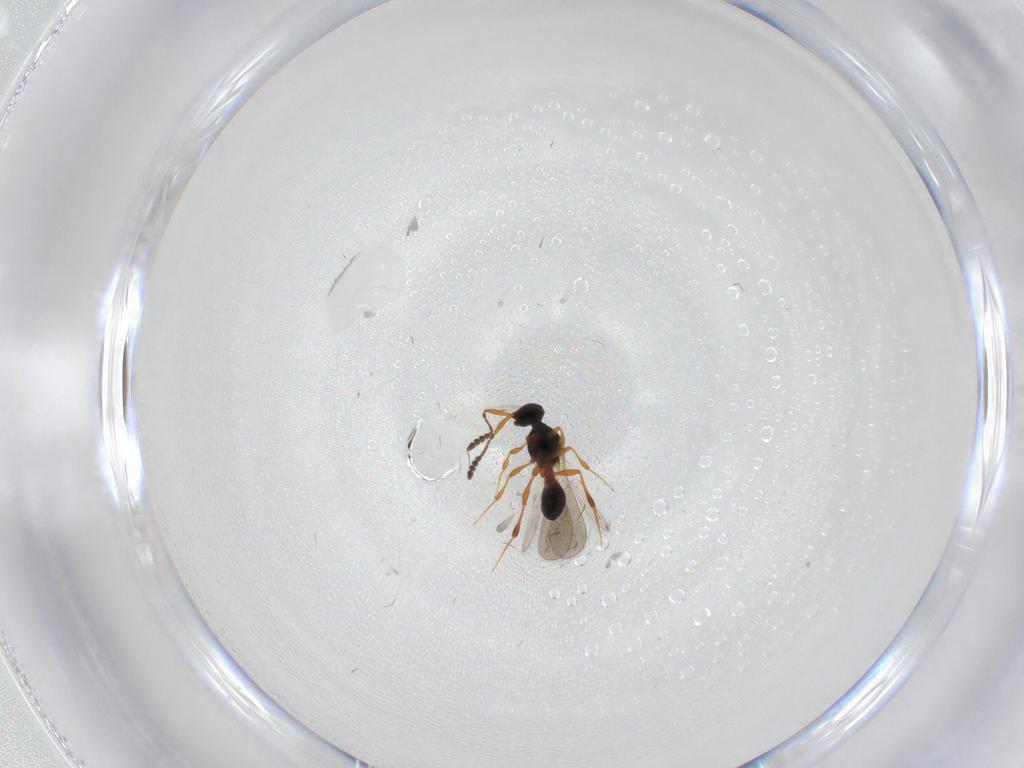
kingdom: Animalia
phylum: Arthropoda
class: Insecta
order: Hymenoptera
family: Platygastridae
